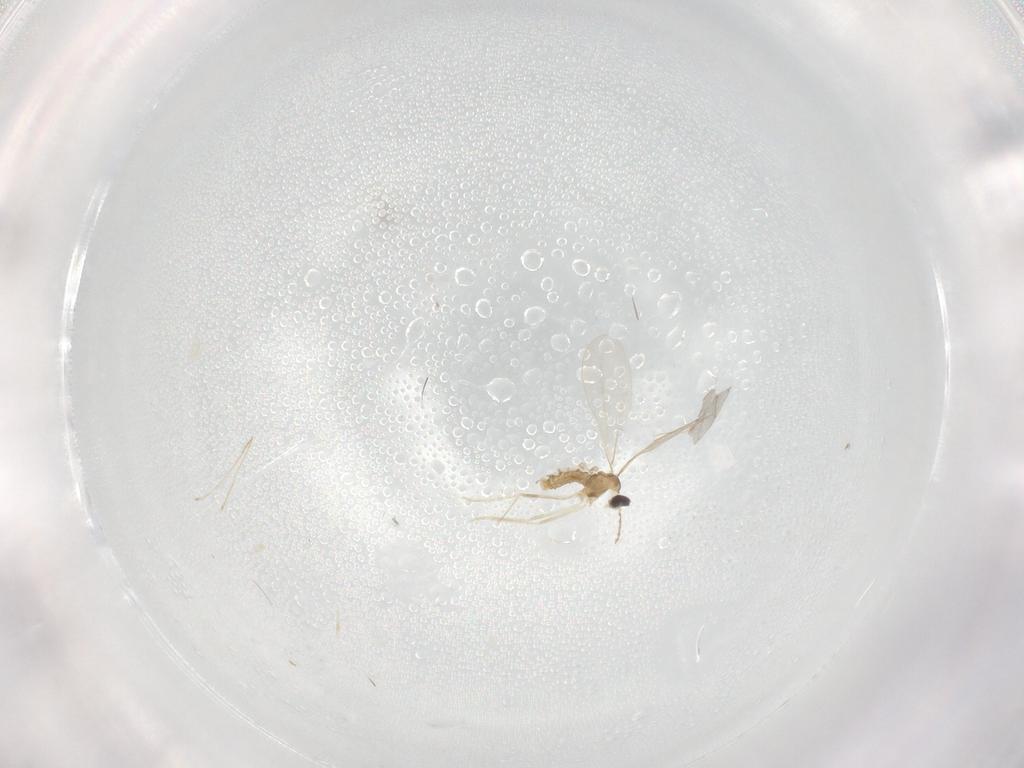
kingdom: Animalia
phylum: Arthropoda
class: Insecta
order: Diptera
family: Cecidomyiidae
